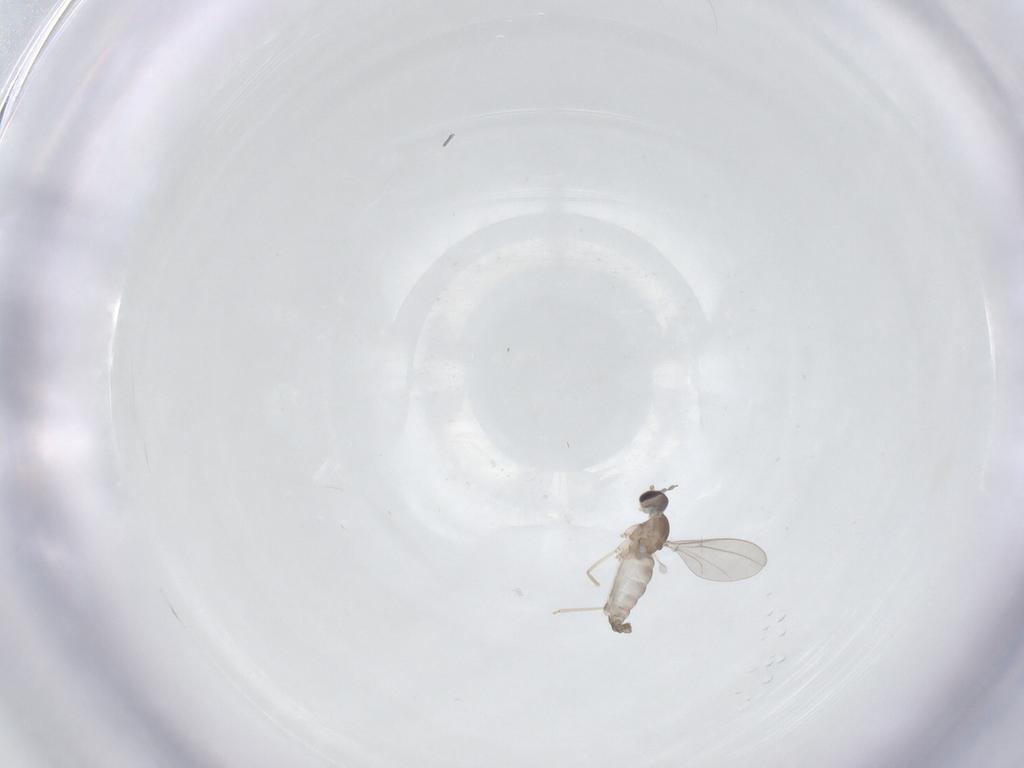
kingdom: Animalia
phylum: Arthropoda
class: Insecta
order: Diptera
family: Cecidomyiidae
